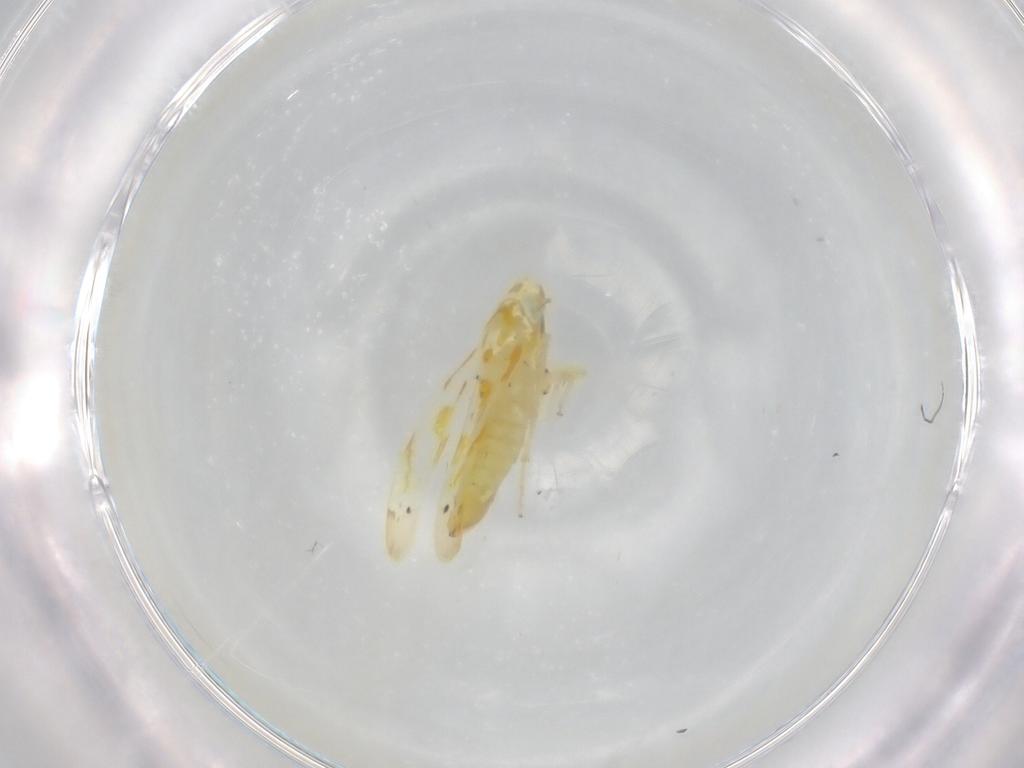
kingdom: Animalia
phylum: Arthropoda
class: Insecta
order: Hemiptera
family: Cicadellidae
